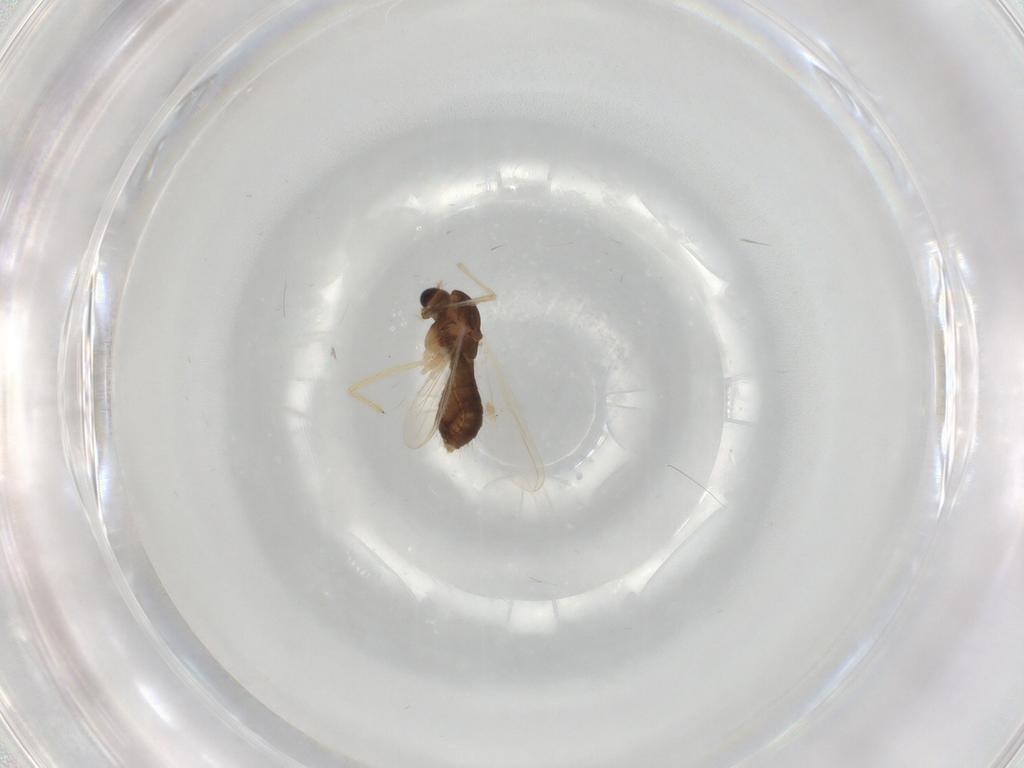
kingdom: Animalia
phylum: Arthropoda
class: Insecta
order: Diptera
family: Chironomidae
